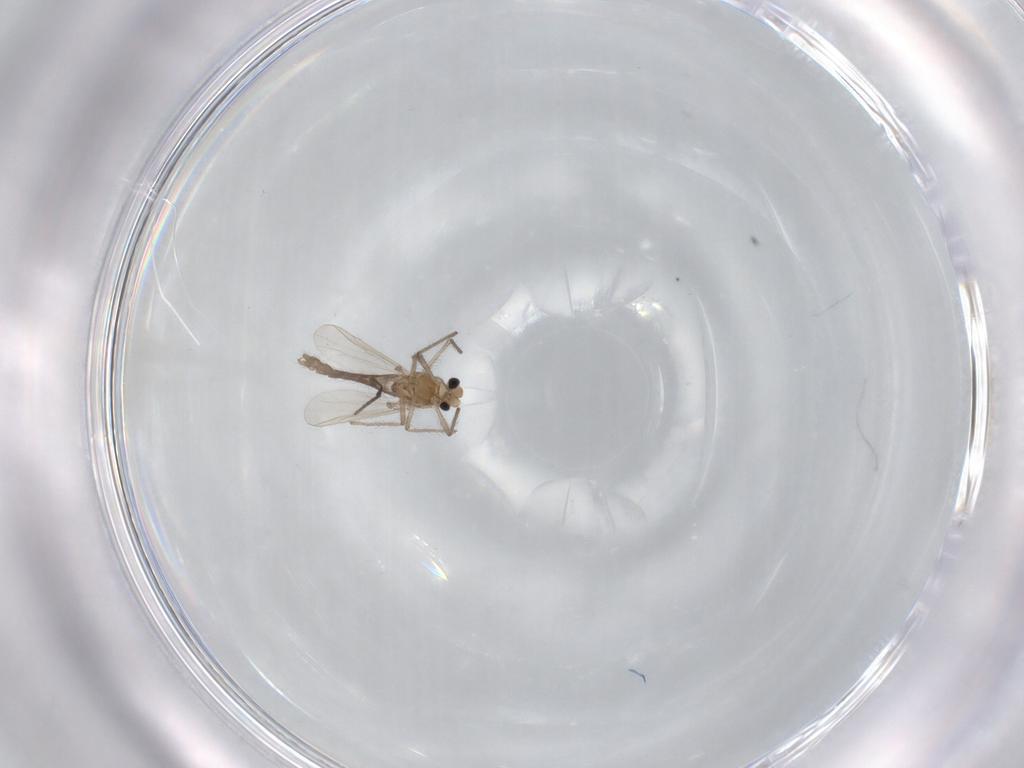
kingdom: Animalia
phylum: Arthropoda
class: Insecta
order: Diptera
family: Chironomidae
